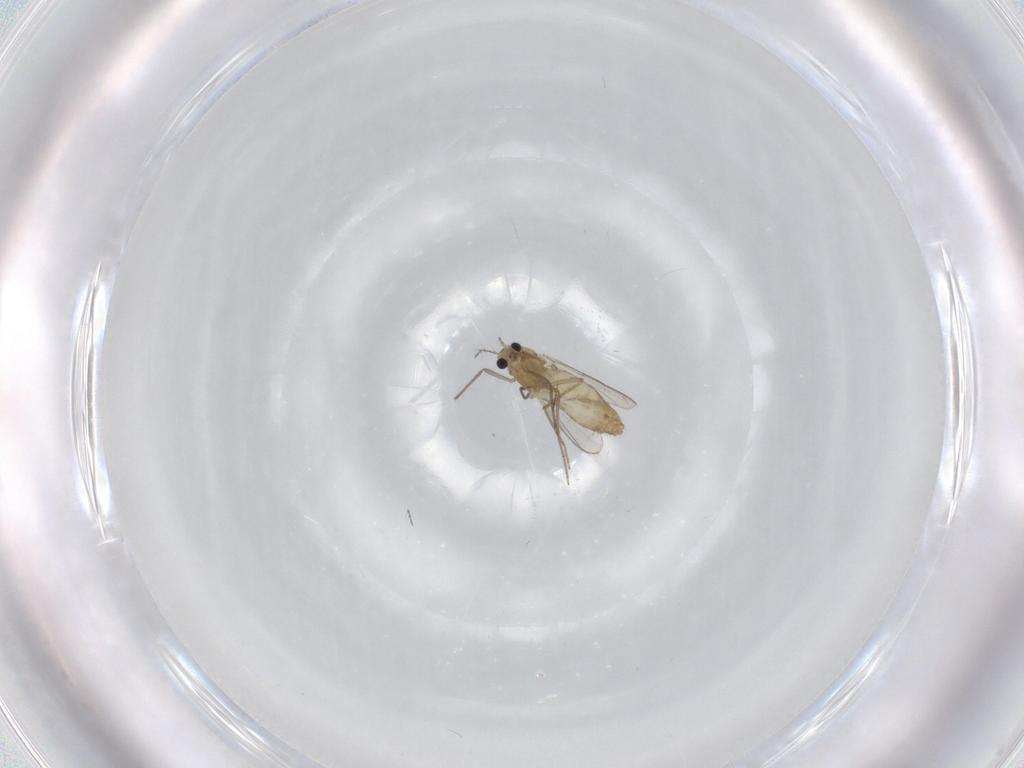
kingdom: Animalia
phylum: Arthropoda
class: Insecta
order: Diptera
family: Chironomidae
